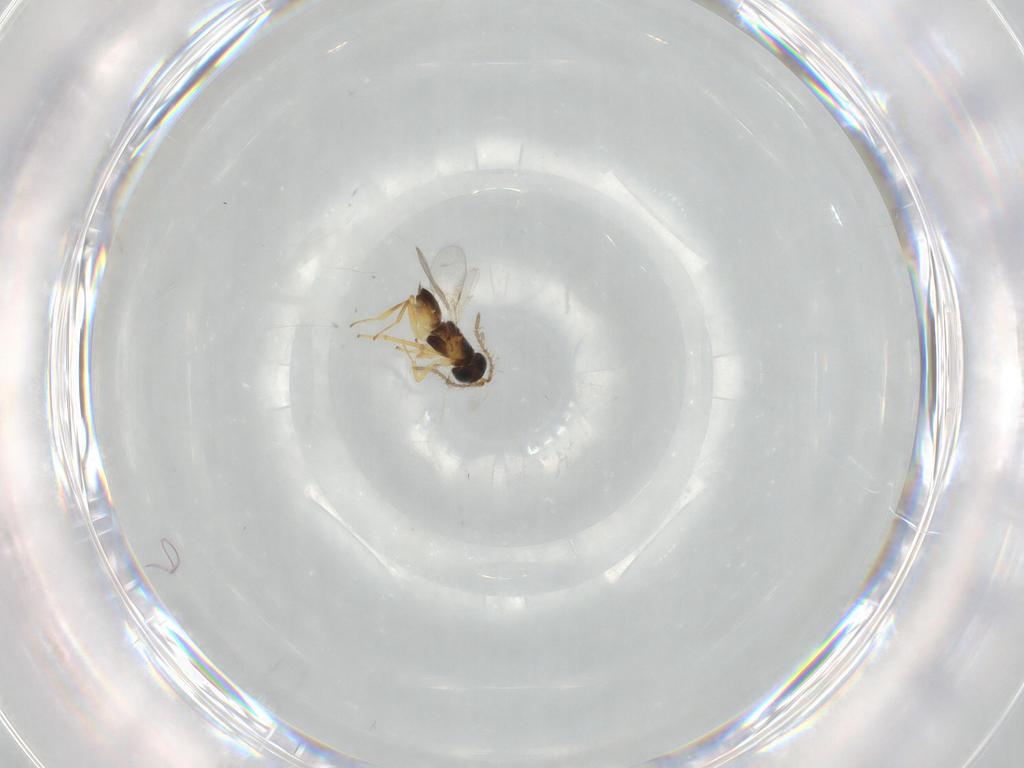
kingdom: Animalia
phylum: Arthropoda
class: Insecta
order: Hymenoptera
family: Encyrtidae
